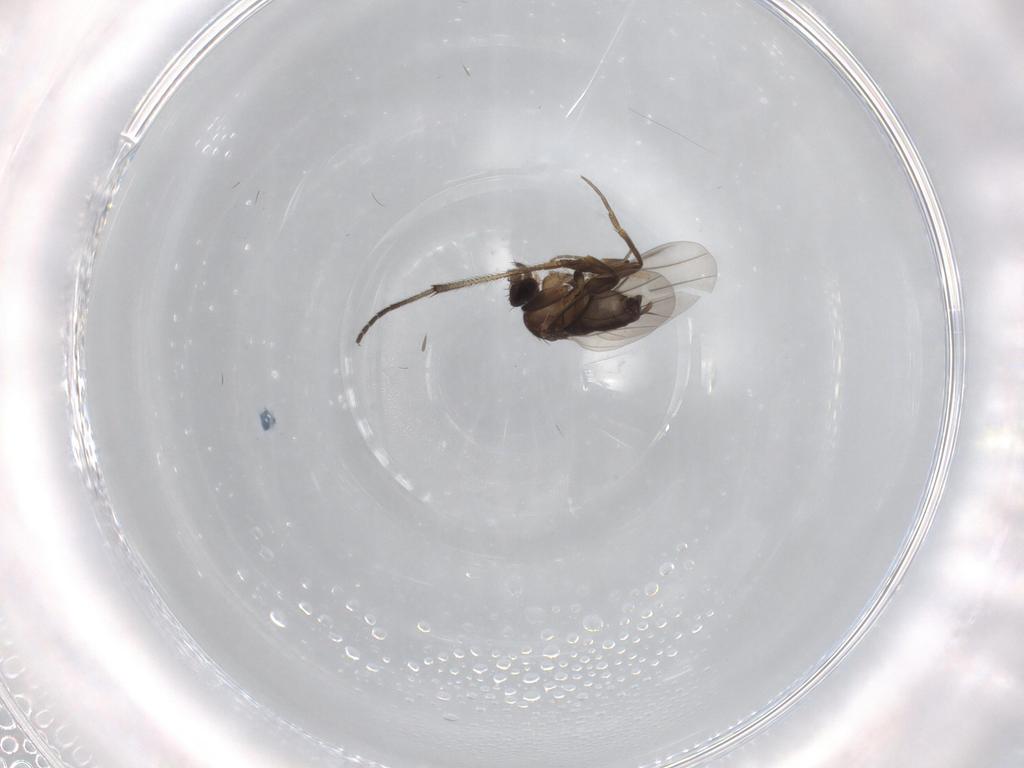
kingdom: Animalia
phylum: Arthropoda
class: Insecta
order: Diptera
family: Phoridae
